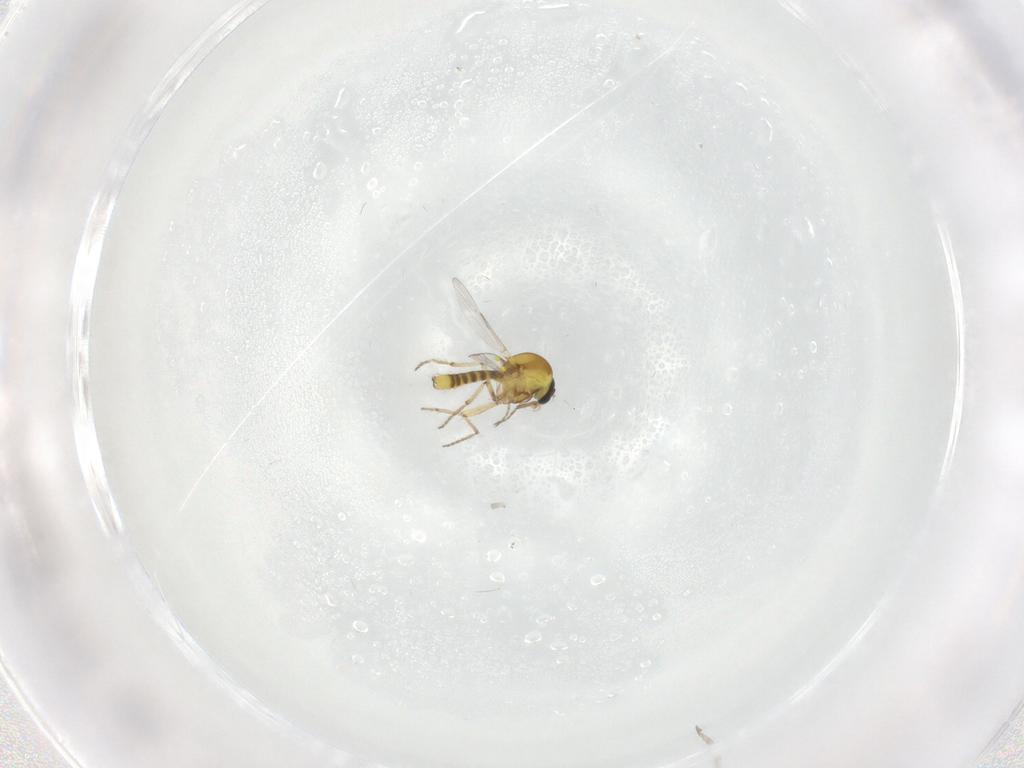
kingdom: Animalia
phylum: Arthropoda
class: Insecta
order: Diptera
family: Ceratopogonidae
